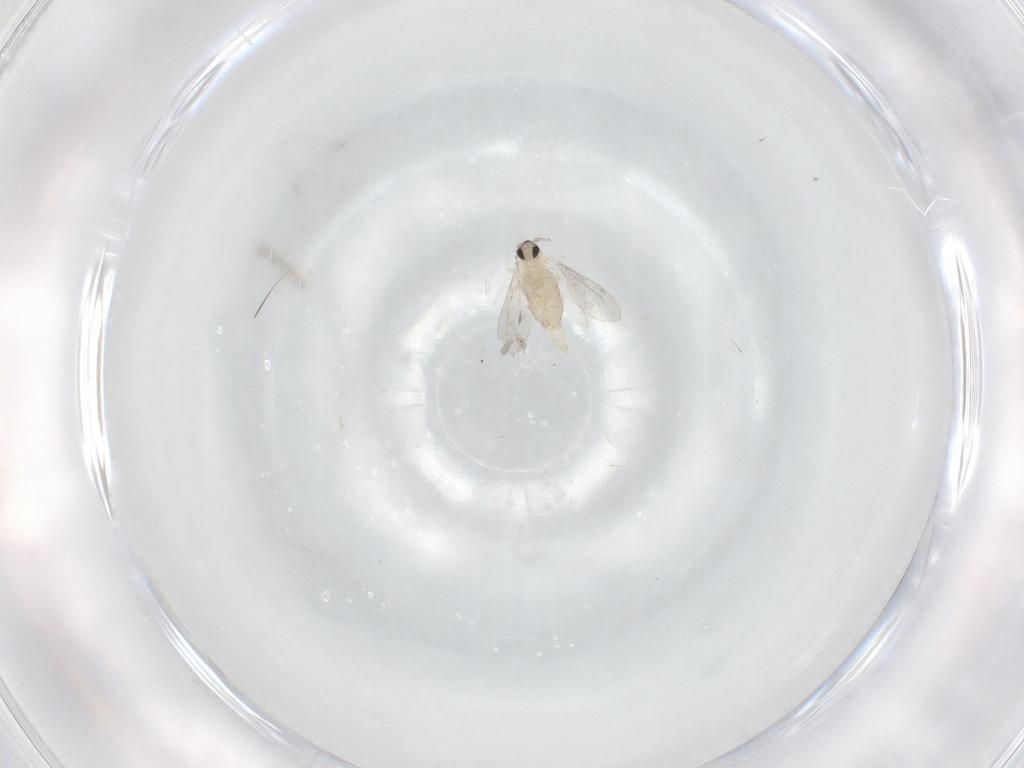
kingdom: Animalia
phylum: Arthropoda
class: Insecta
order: Diptera
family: Cecidomyiidae
